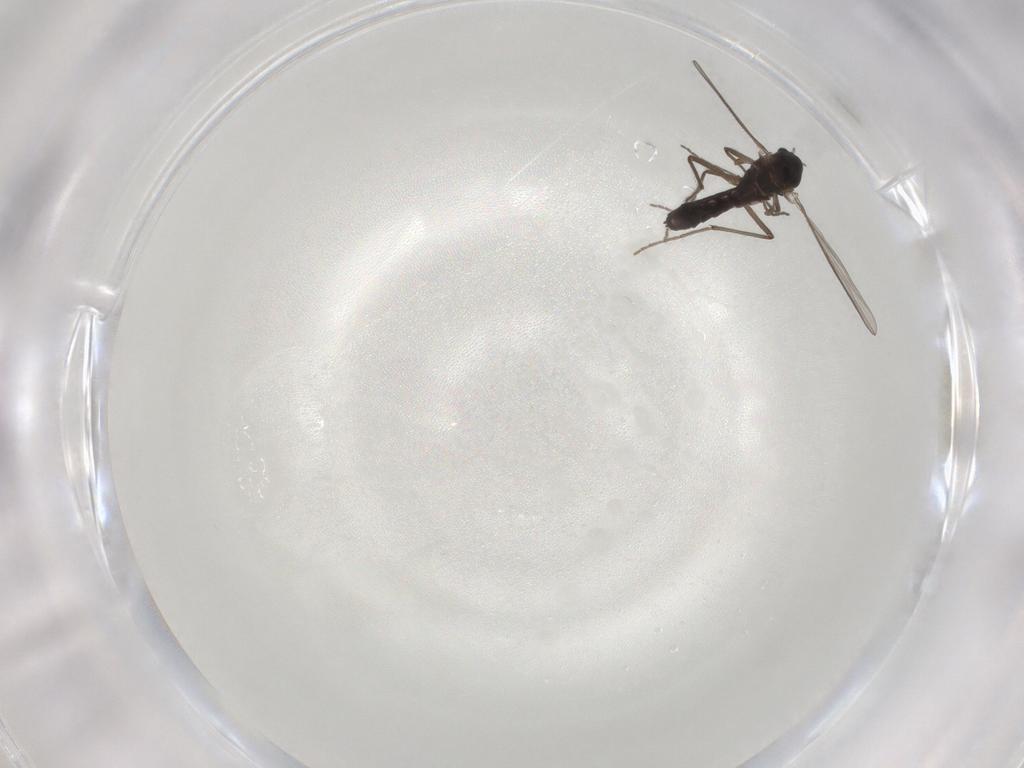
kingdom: Animalia
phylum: Arthropoda
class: Insecta
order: Diptera
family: Chironomidae
